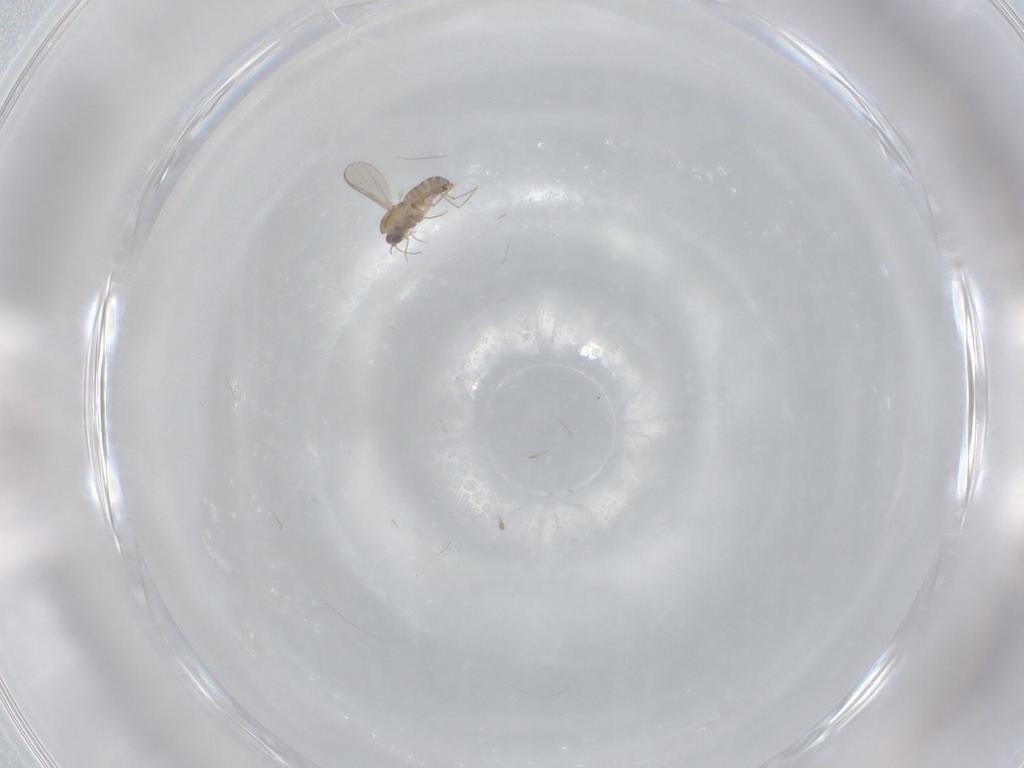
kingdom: Animalia
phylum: Arthropoda
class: Insecta
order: Diptera
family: Chironomidae
